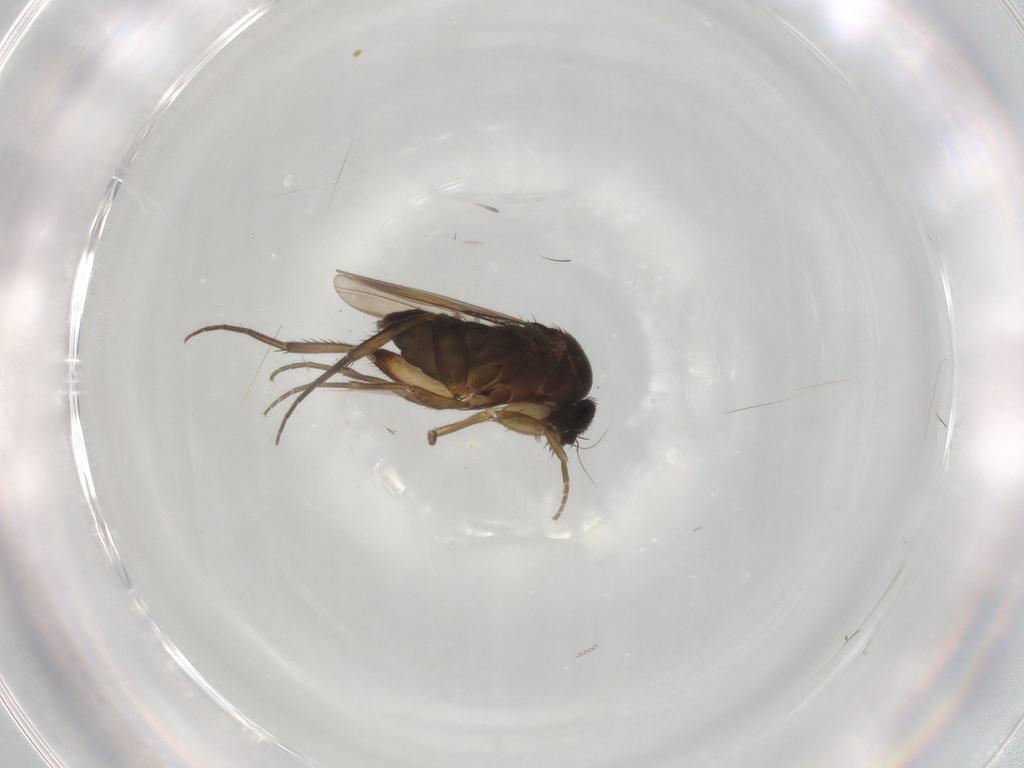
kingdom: Animalia
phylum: Arthropoda
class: Insecta
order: Diptera
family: Phoridae
